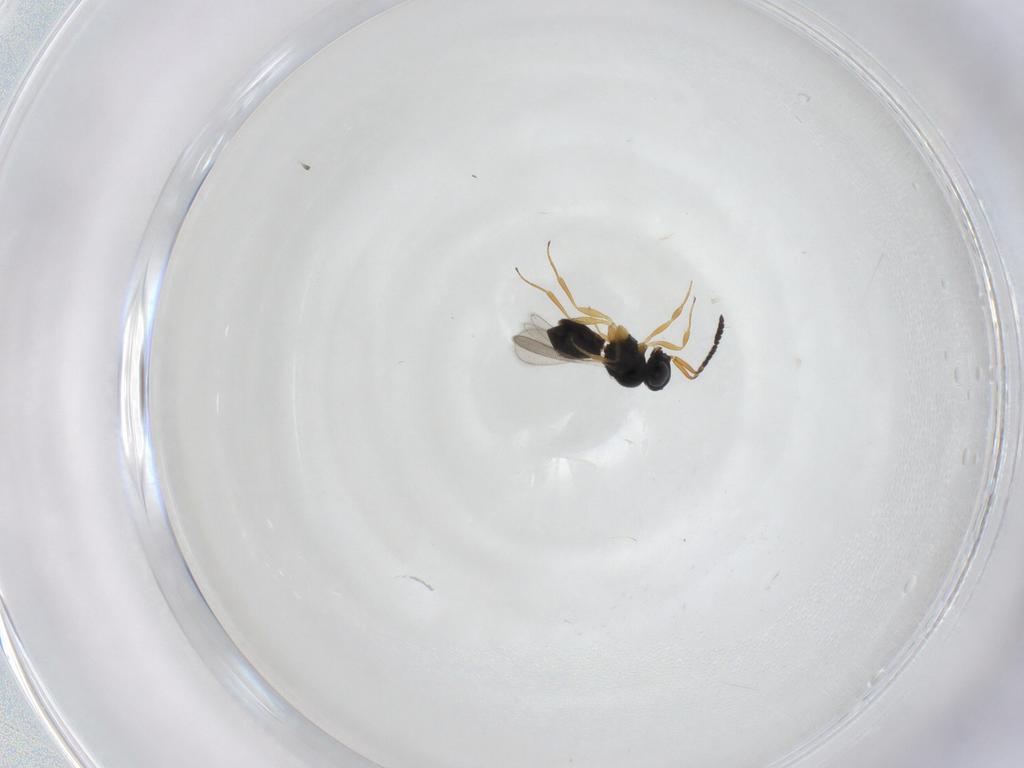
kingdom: Animalia
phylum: Arthropoda
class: Insecta
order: Hymenoptera
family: Scelionidae
